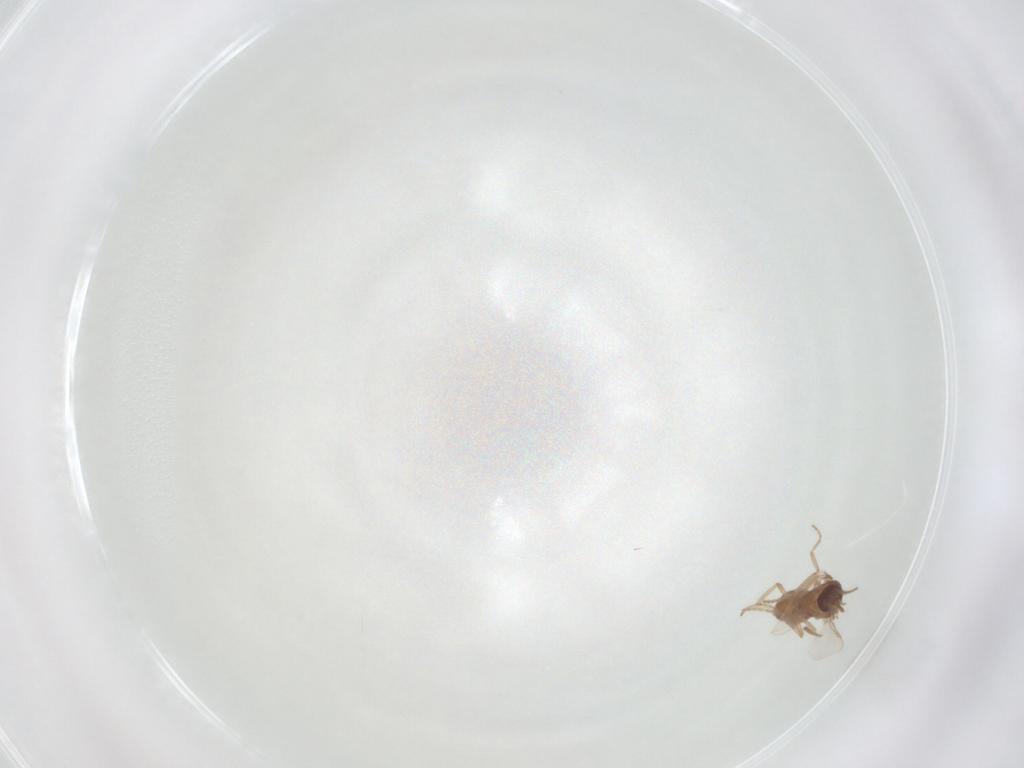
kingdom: Animalia
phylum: Arthropoda
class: Insecta
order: Diptera
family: Ceratopogonidae
